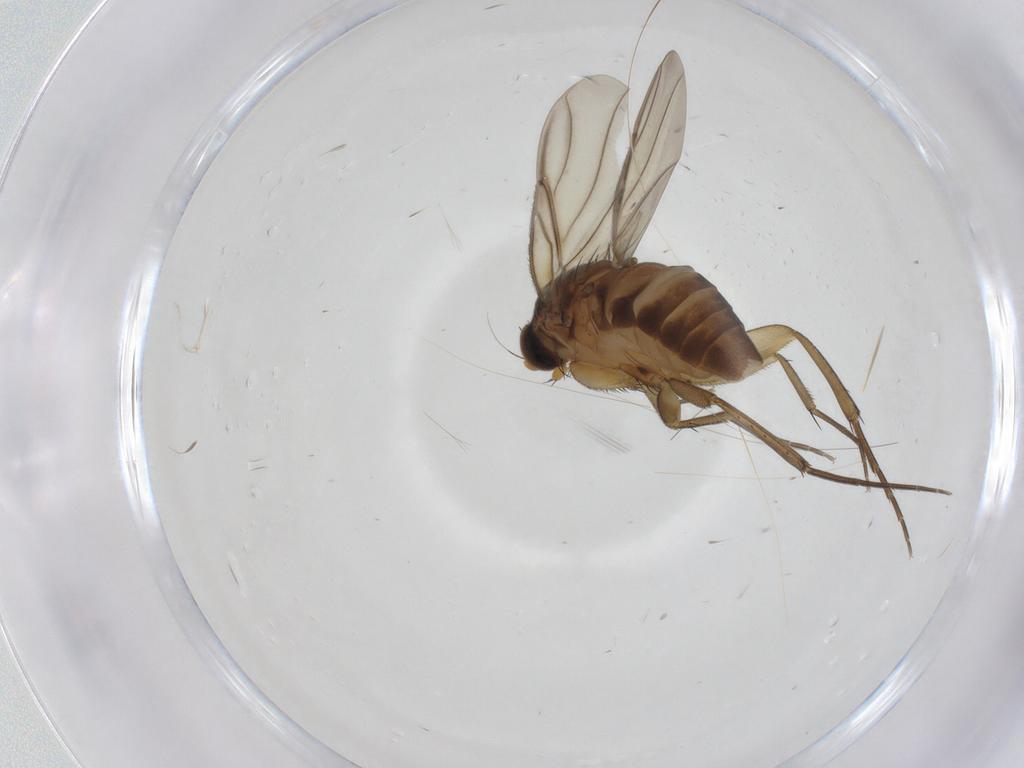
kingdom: Animalia
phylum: Arthropoda
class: Insecta
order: Diptera
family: Phoridae
